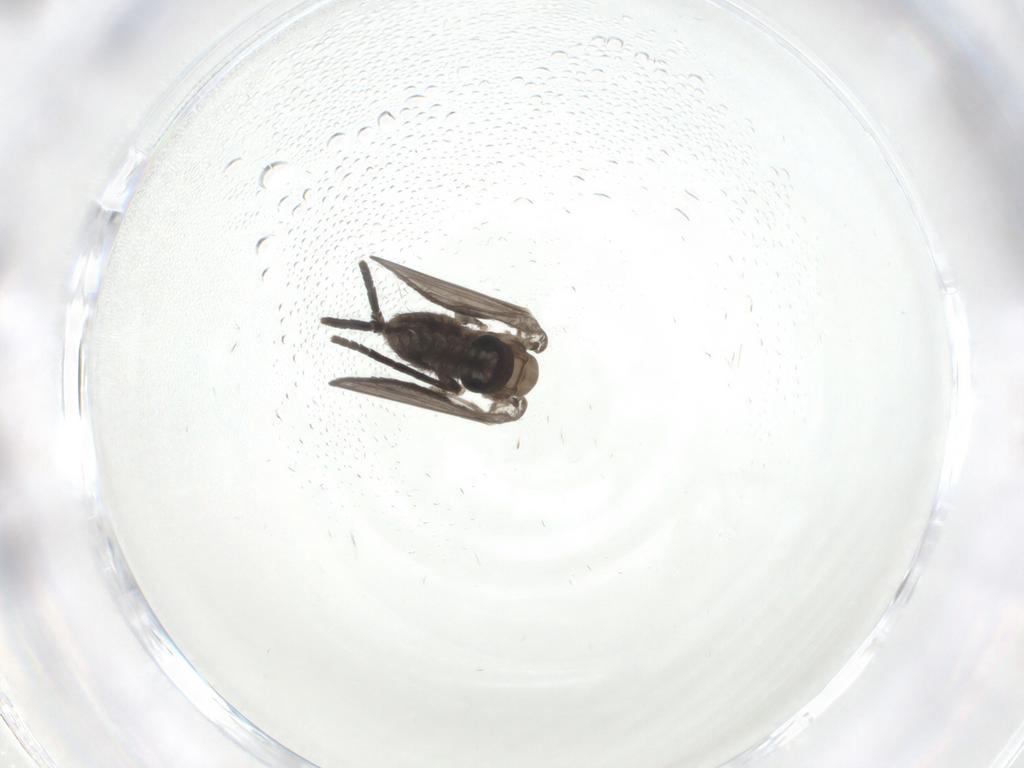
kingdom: Animalia
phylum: Arthropoda
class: Insecta
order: Diptera
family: Psychodidae
